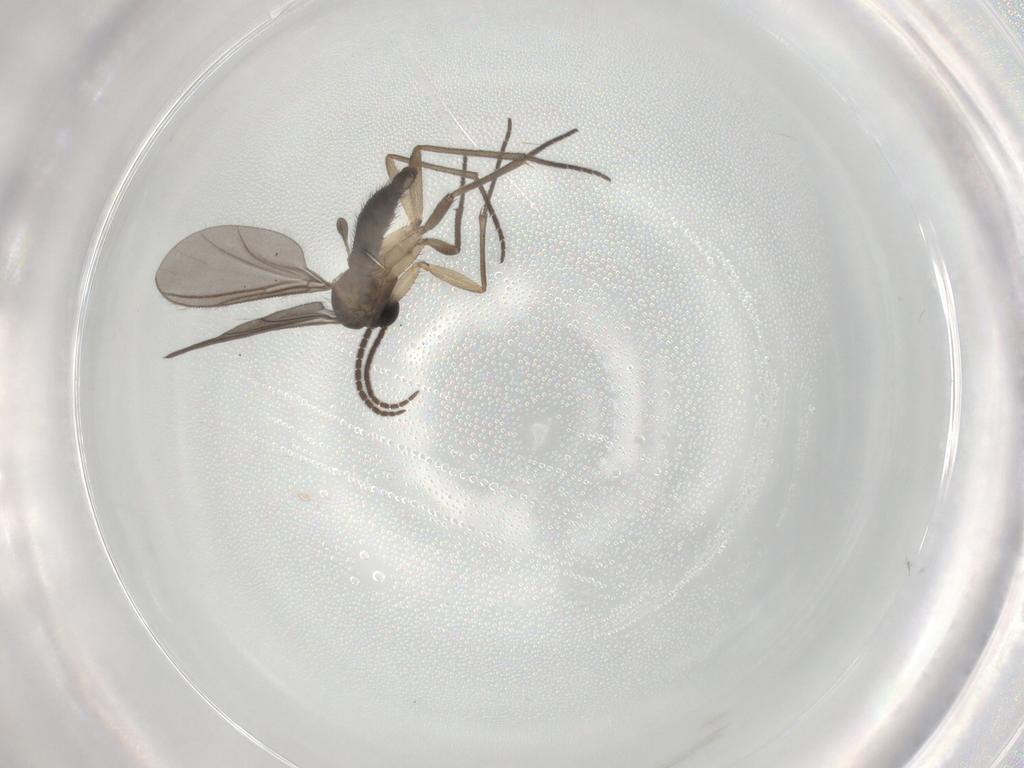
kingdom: Animalia
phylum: Arthropoda
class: Insecta
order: Diptera
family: Sciaridae
